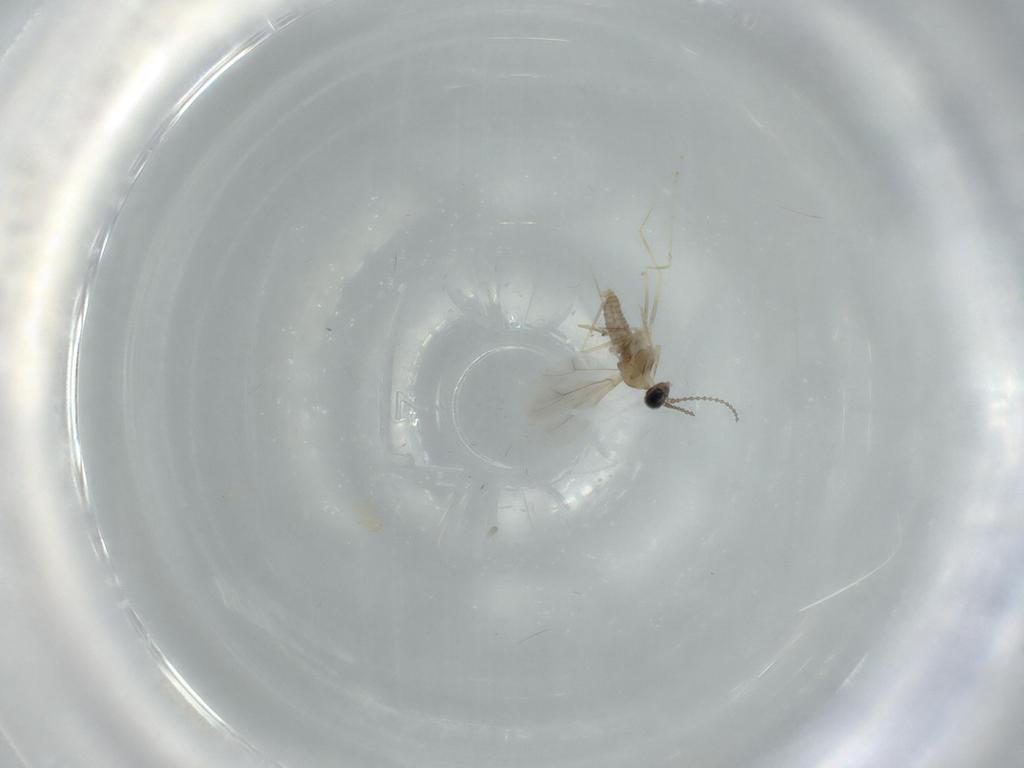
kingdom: Animalia
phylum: Arthropoda
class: Insecta
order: Diptera
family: Cecidomyiidae
